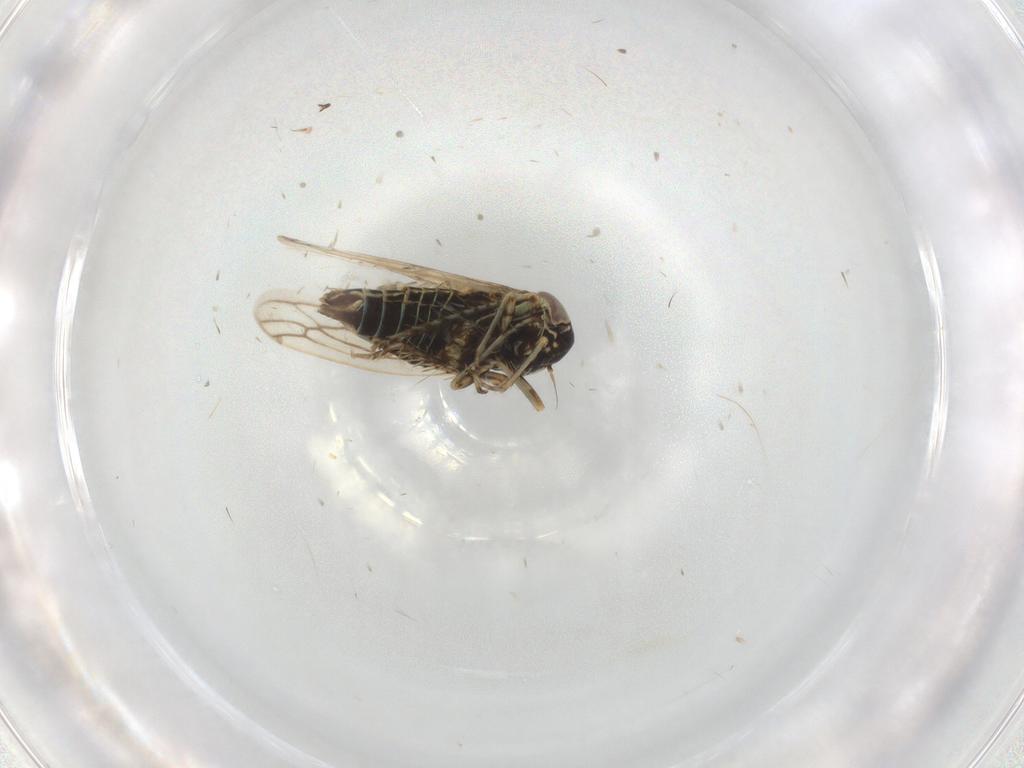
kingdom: Animalia
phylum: Arthropoda
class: Insecta
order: Hemiptera
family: Cicadellidae
